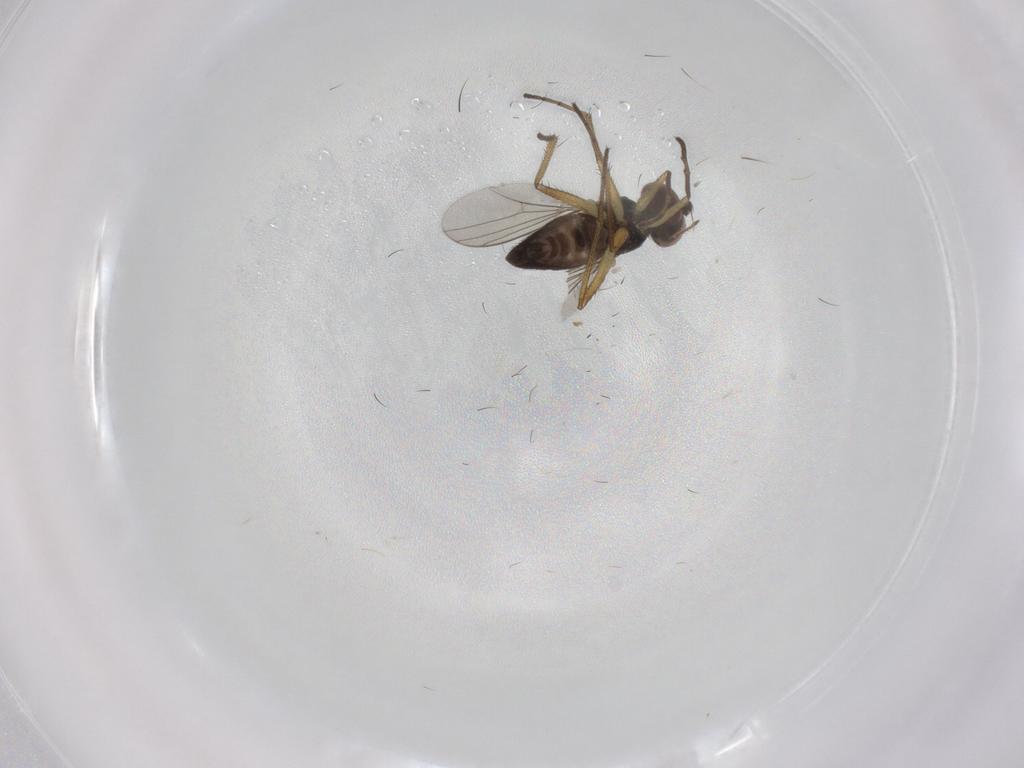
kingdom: Animalia
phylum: Arthropoda
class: Insecta
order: Diptera
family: Dolichopodidae
